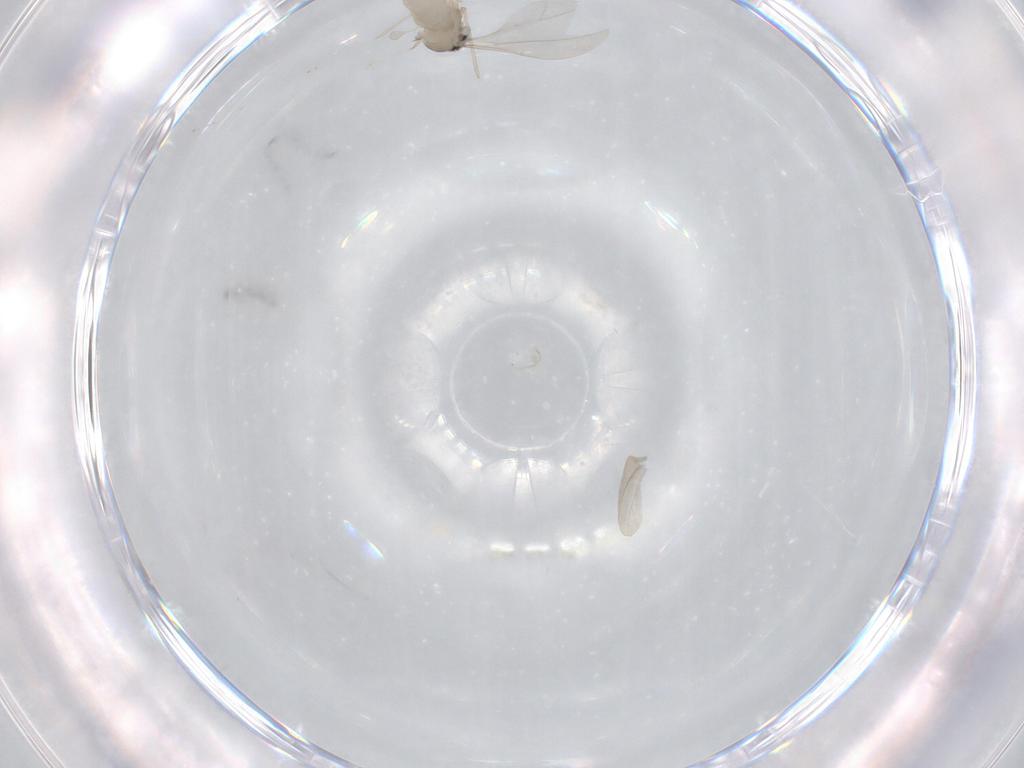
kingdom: Animalia
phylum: Arthropoda
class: Insecta
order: Diptera
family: Cecidomyiidae
